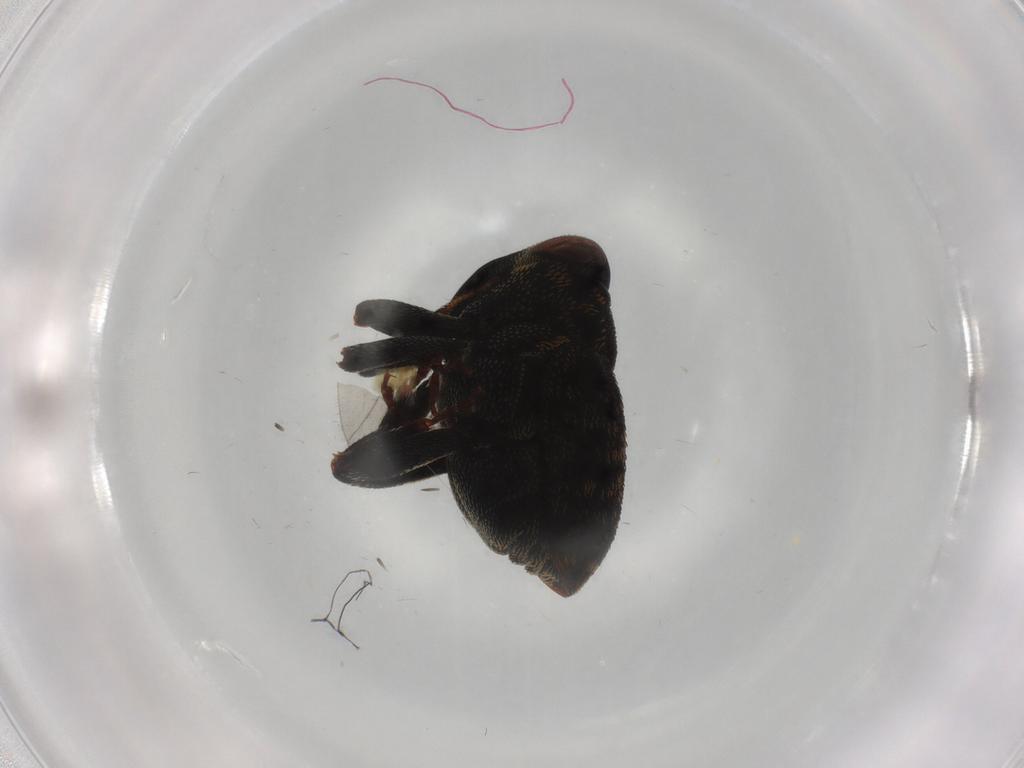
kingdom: Animalia
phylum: Arthropoda
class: Insecta
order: Coleoptera
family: Curculionidae
